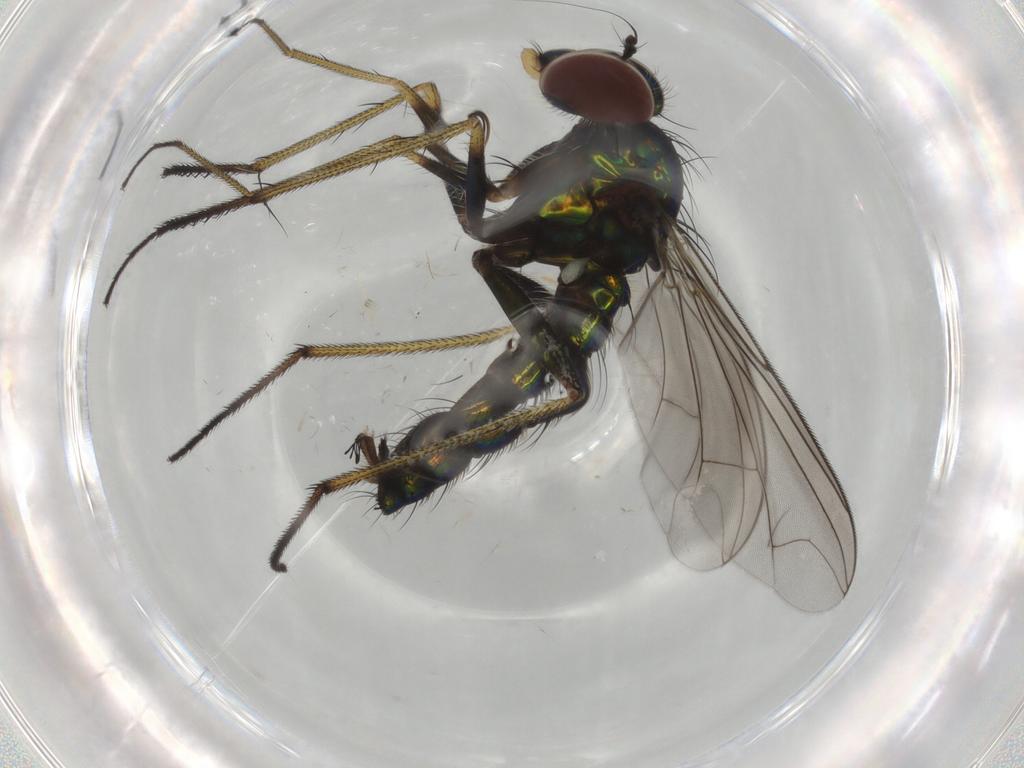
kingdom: Animalia
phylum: Arthropoda
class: Insecta
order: Diptera
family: Dolichopodidae
